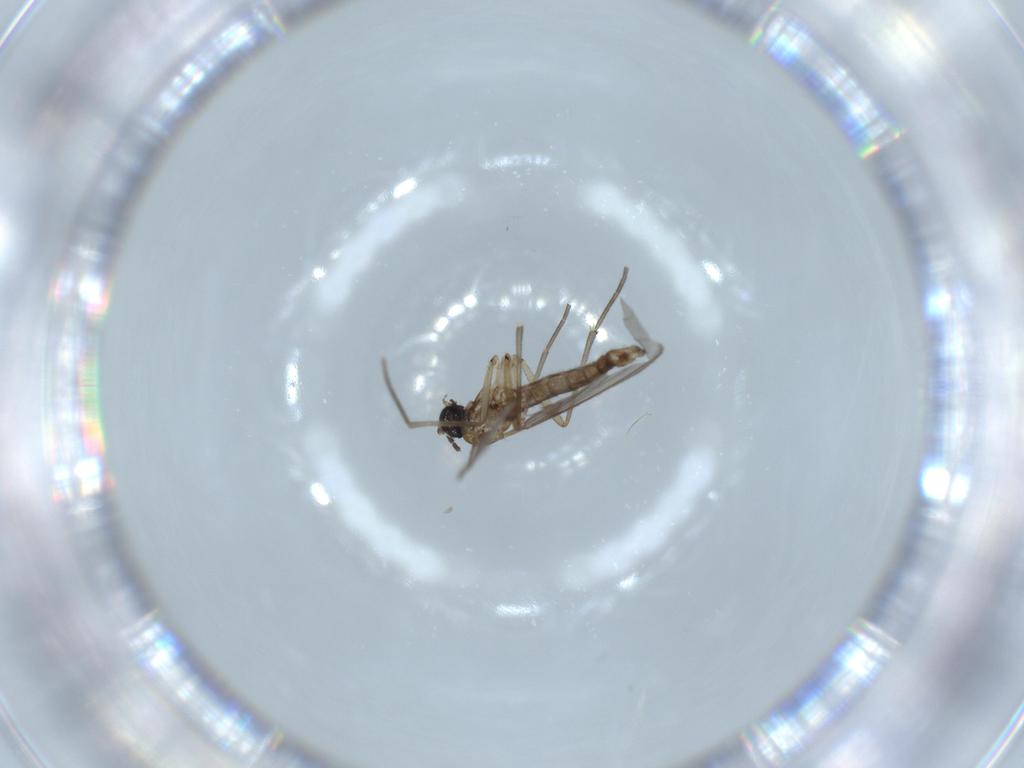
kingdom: Animalia
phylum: Arthropoda
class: Insecta
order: Diptera
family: Sciaridae
